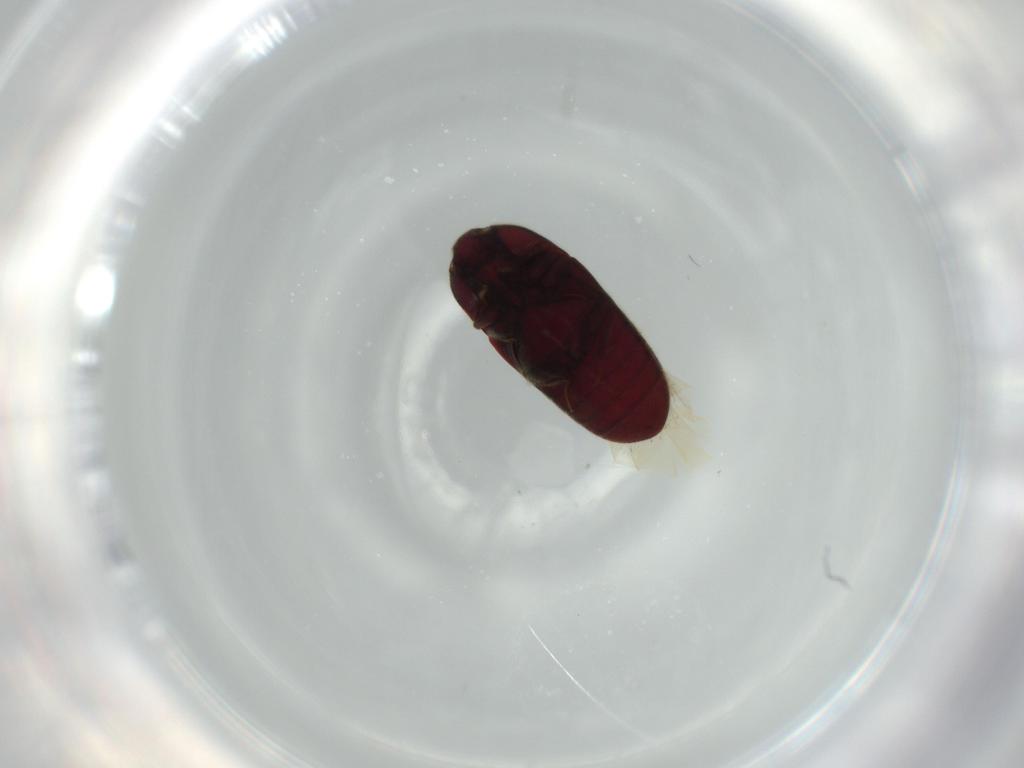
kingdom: Animalia
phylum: Arthropoda
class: Insecta
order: Coleoptera
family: Throscidae
